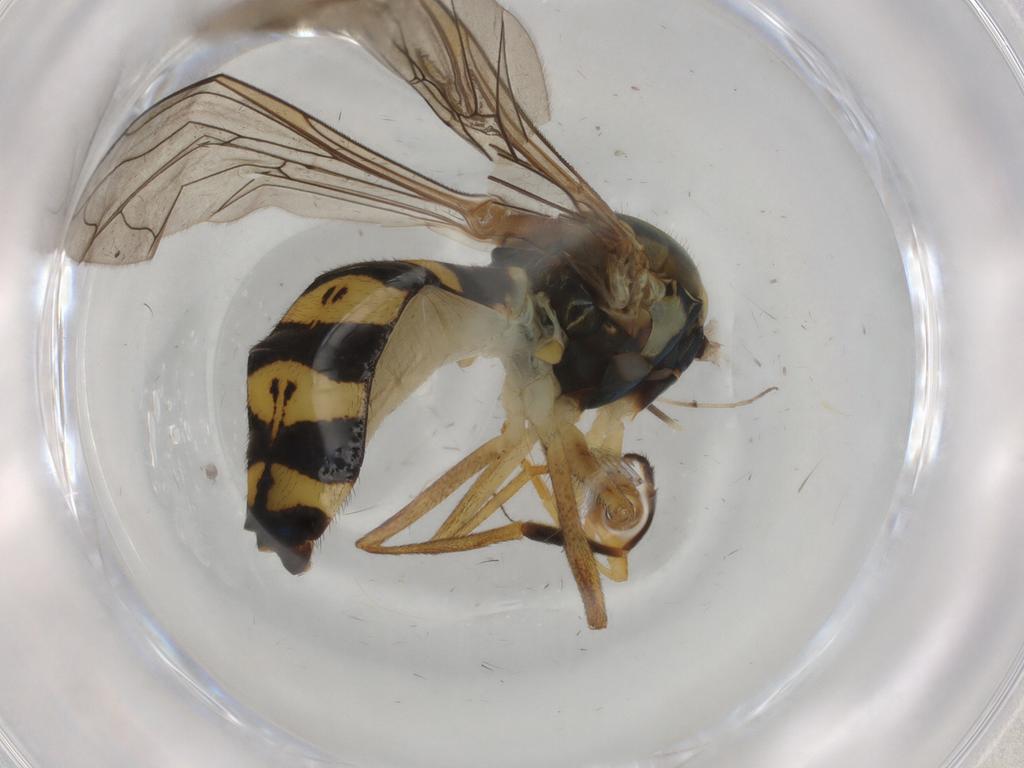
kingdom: Animalia
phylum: Arthropoda
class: Insecta
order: Diptera
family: Syrphidae
